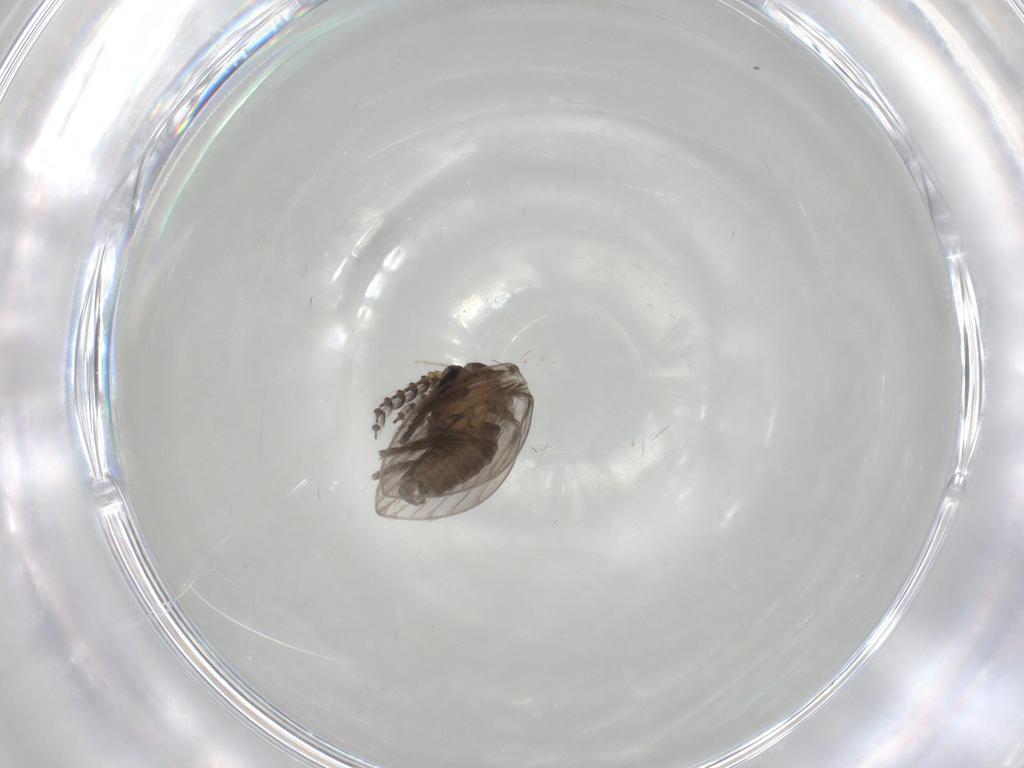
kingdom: Animalia
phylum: Arthropoda
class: Insecta
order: Diptera
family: Psychodidae
